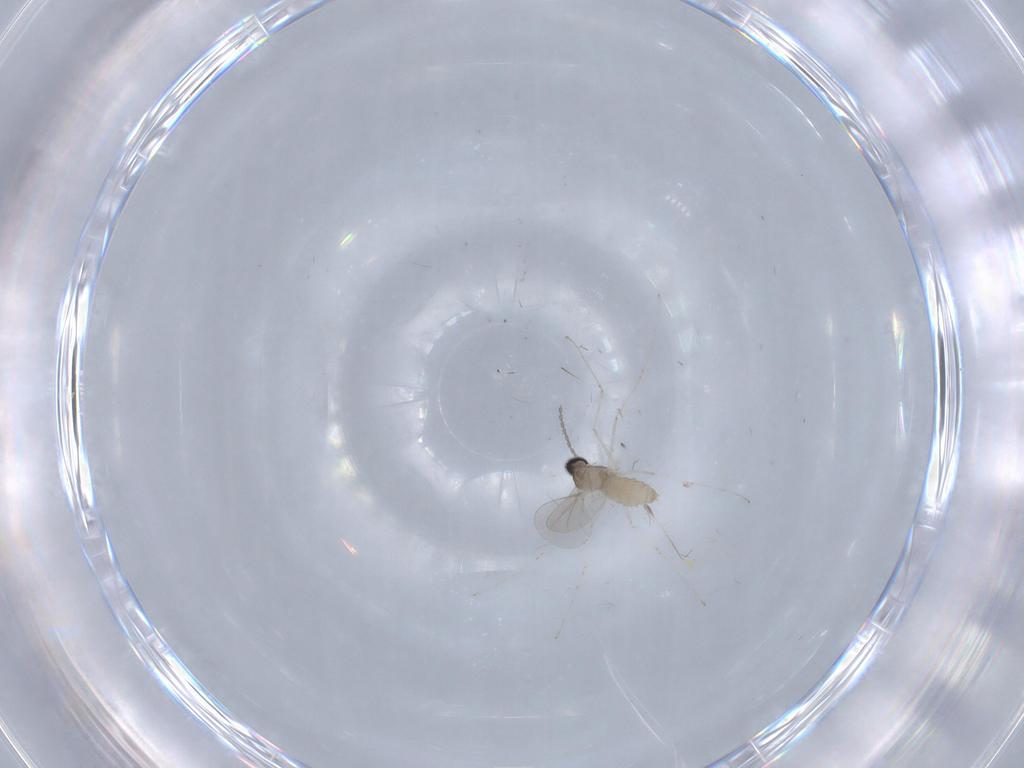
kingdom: Animalia
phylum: Arthropoda
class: Insecta
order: Diptera
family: Cecidomyiidae
